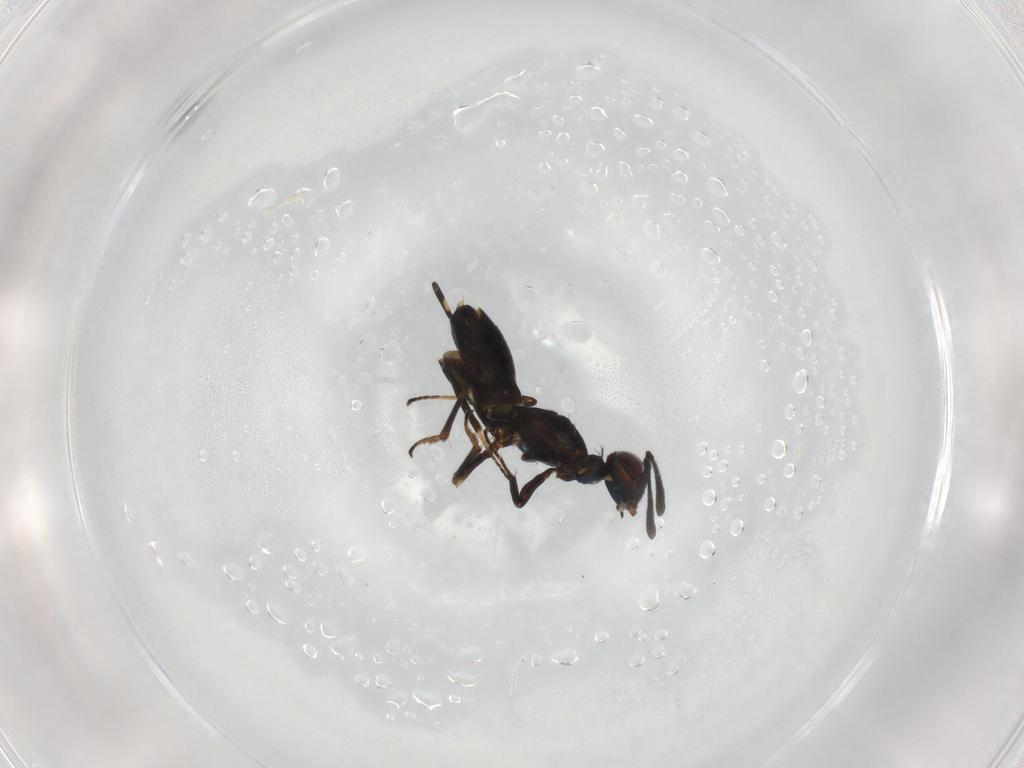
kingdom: Animalia
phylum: Arthropoda
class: Insecta
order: Hymenoptera
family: Eupelmidae
